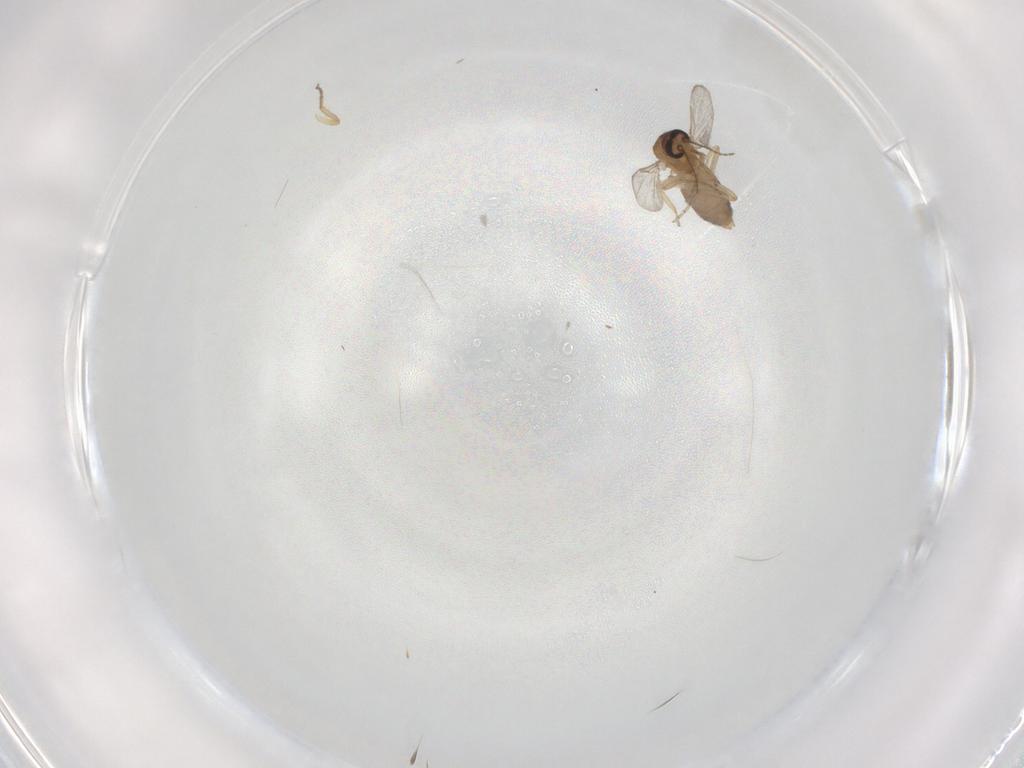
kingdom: Animalia
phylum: Arthropoda
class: Insecta
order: Diptera
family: Ceratopogonidae
